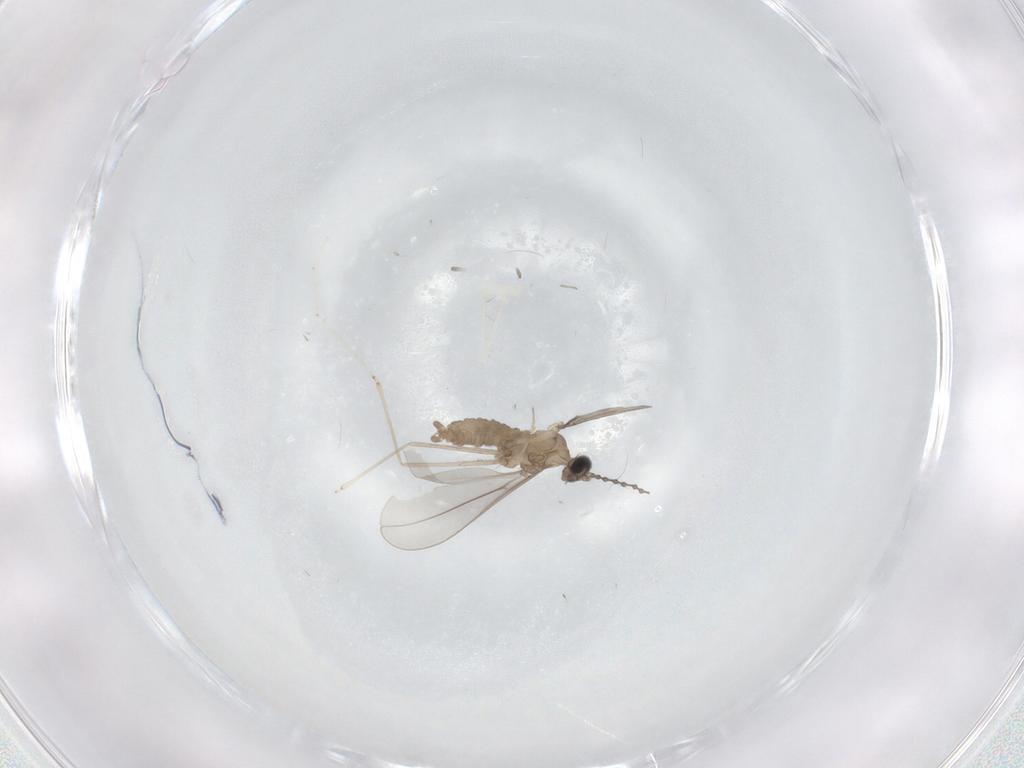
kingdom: Animalia
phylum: Arthropoda
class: Insecta
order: Diptera
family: Cecidomyiidae
